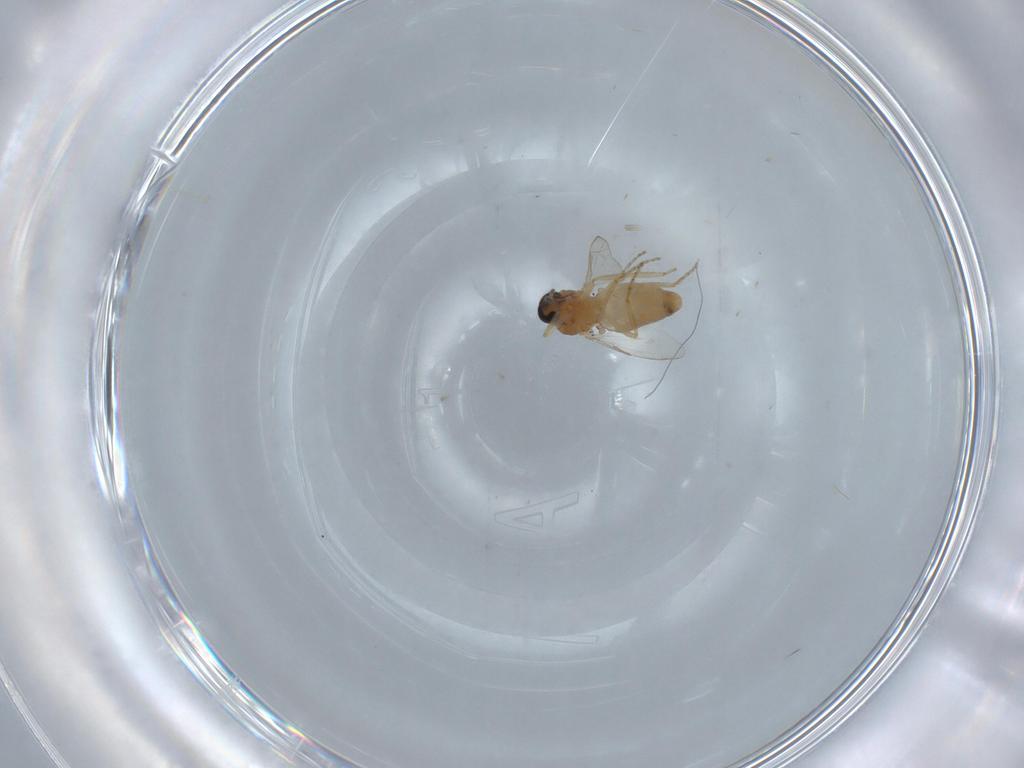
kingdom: Animalia
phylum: Arthropoda
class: Insecta
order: Diptera
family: Ceratopogonidae
